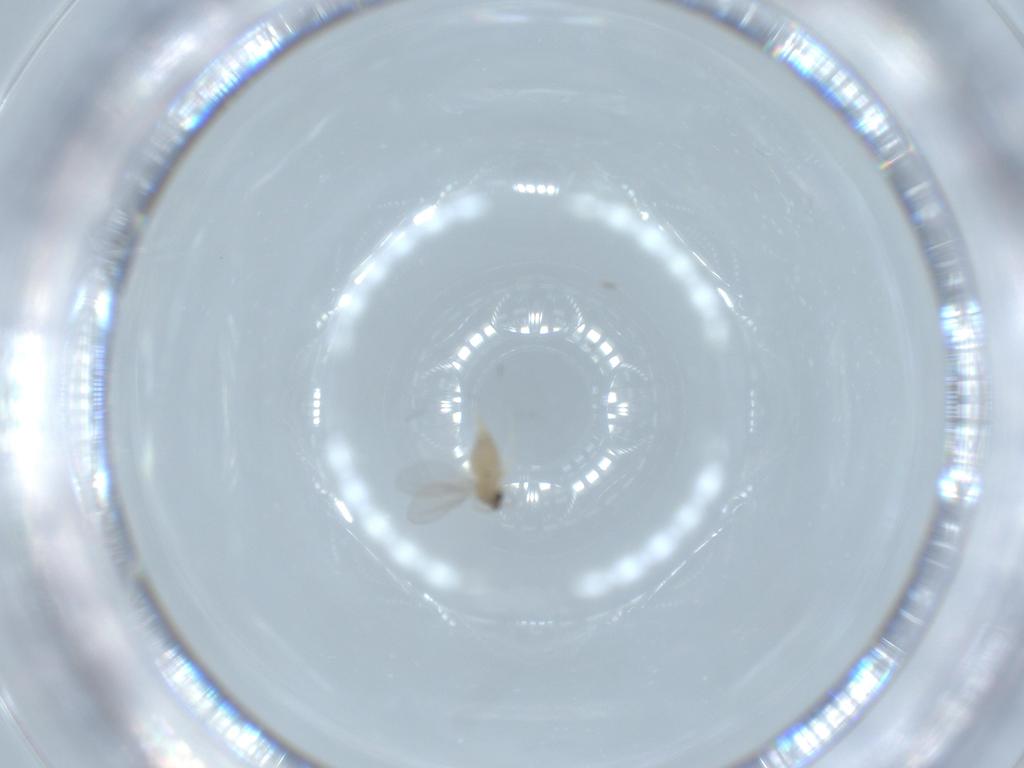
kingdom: Animalia
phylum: Arthropoda
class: Insecta
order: Diptera
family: Cecidomyiidae
